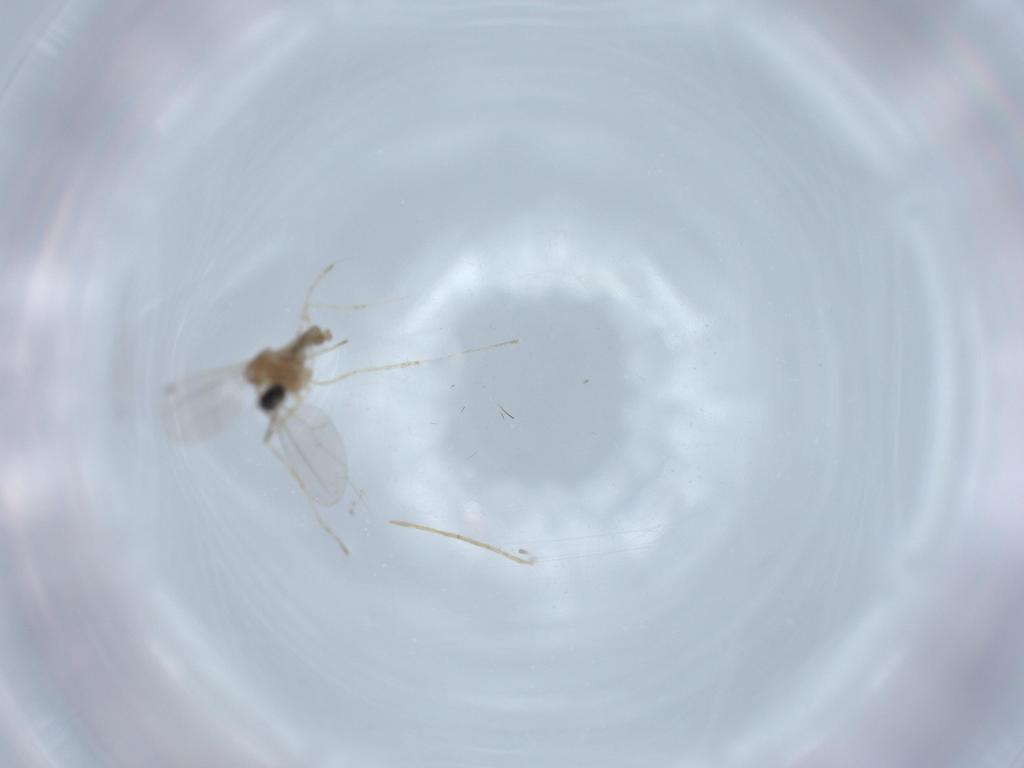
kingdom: Animalia
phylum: Arthropoda
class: Insecta
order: Diptera
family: Cecidomyiidae
